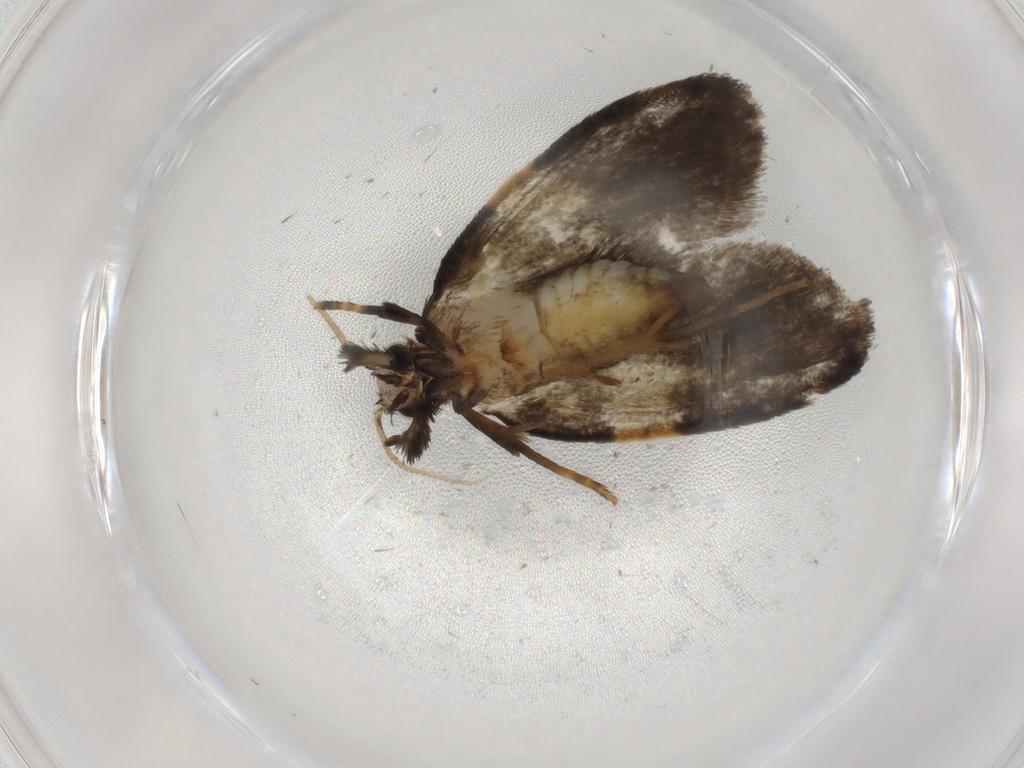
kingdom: Animalia
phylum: Arthropoda
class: Insecta
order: Lepidoptera
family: Psychidae
